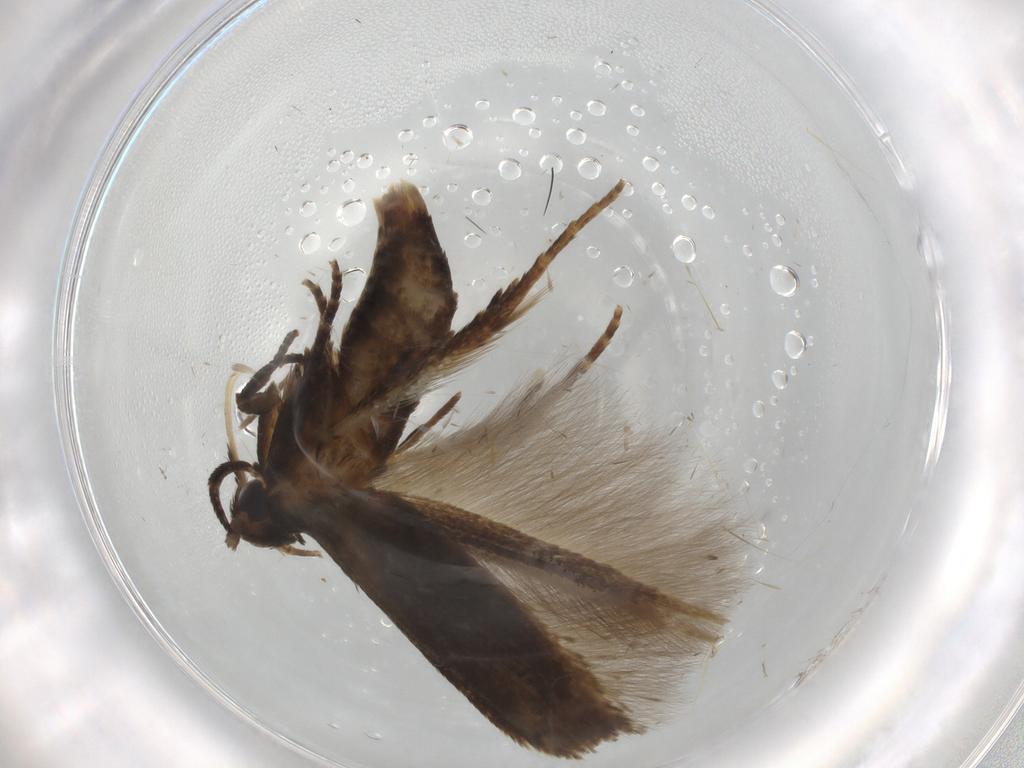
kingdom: Animalia
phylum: Arthropoda
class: Insecta
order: Lepidoptera
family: Cosmopterigidae
